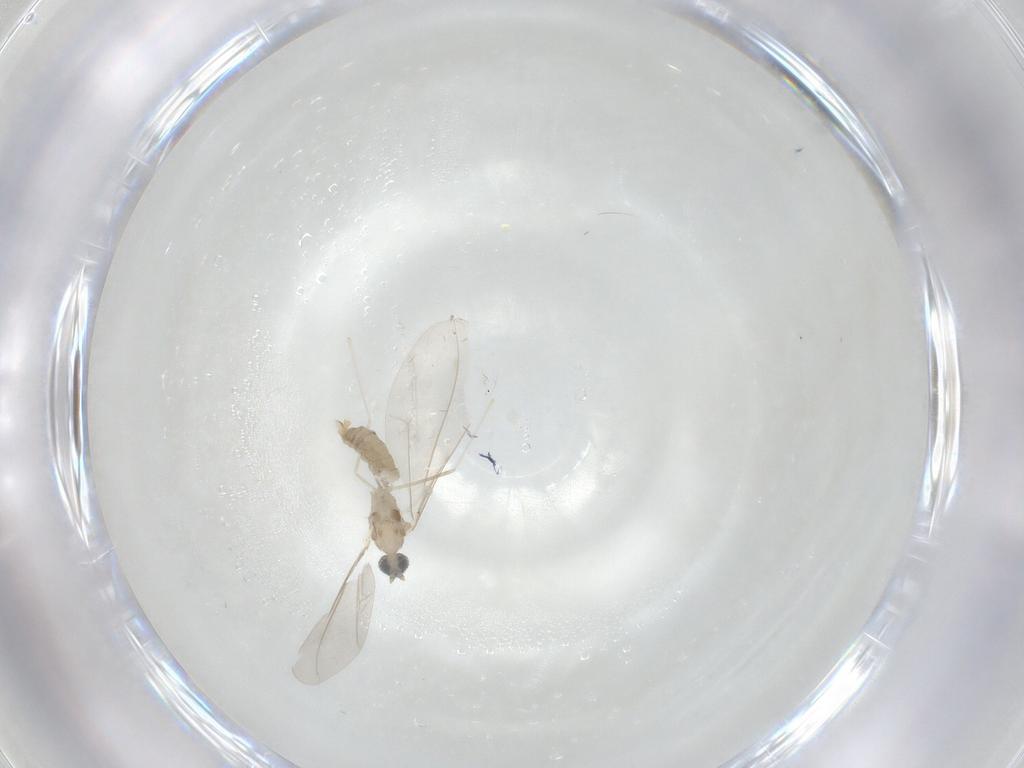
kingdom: Animalia
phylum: Arthropoda
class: Insecta
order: Diptera
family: Cecidomyiidae
